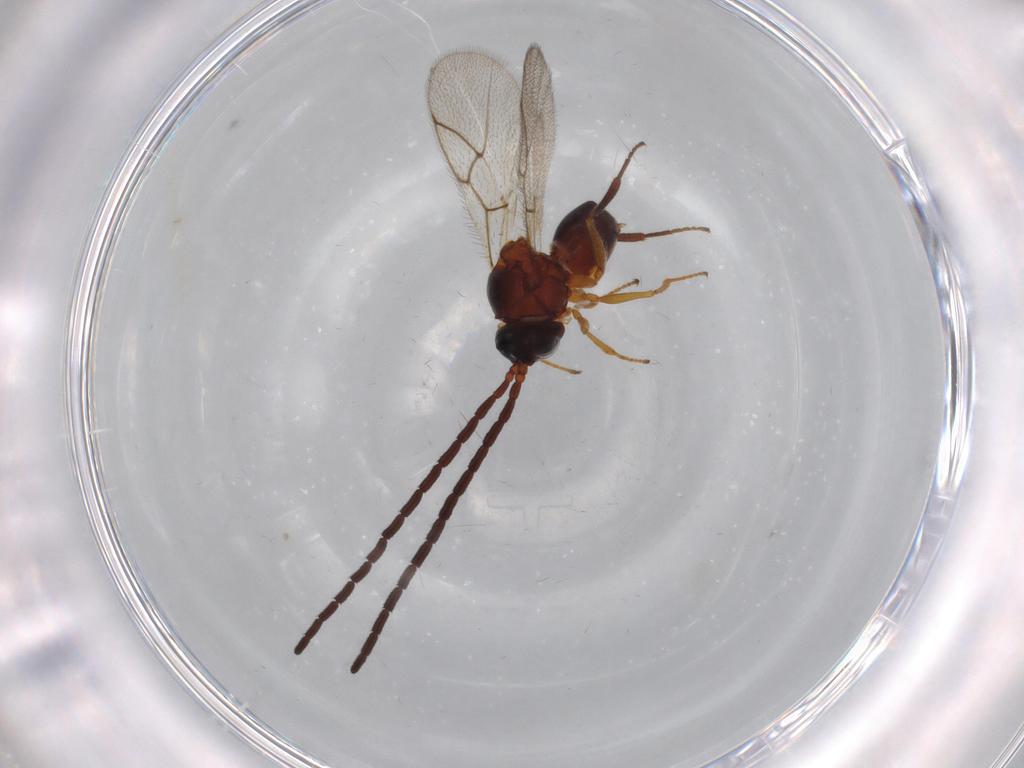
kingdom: Animalia
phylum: Arthropoda
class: Insecta
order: Hymenoptera
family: Figitidae
